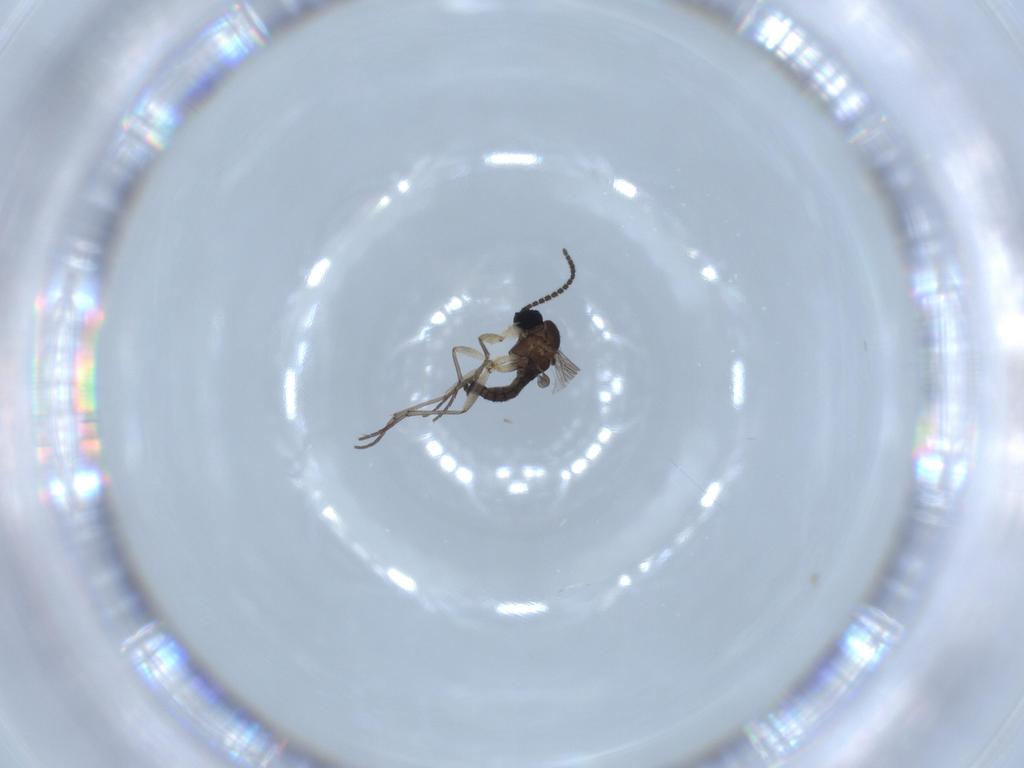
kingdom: Animalia
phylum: Arthropoda
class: Insecta
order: Diptera
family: Sciaridae
